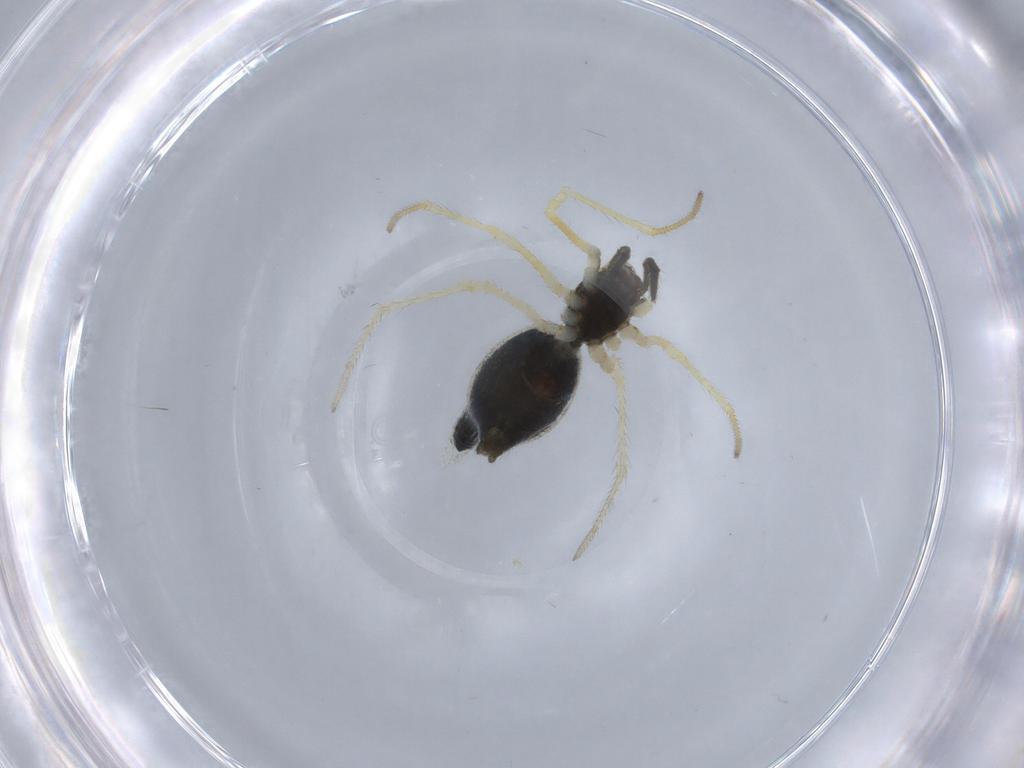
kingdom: Animalia
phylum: Arthropoda
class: Arachnida
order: Araneae
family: Theridiidae
